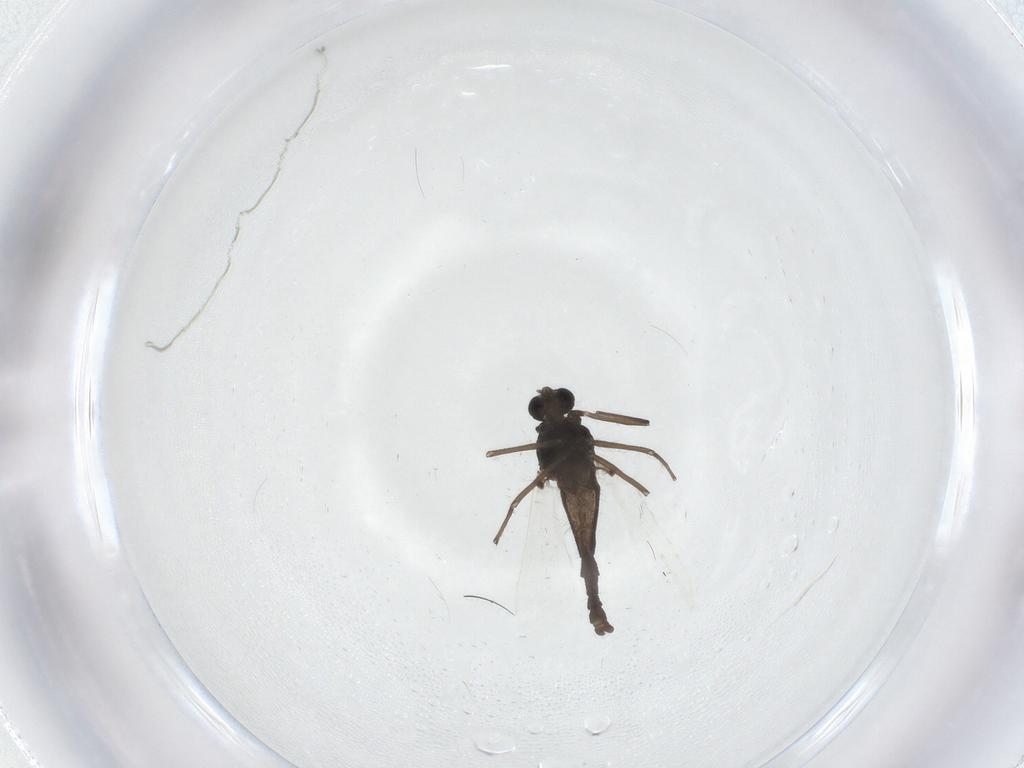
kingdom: Animalia
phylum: Arthropoda
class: Insecta
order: Diptera
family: Chironomidae
